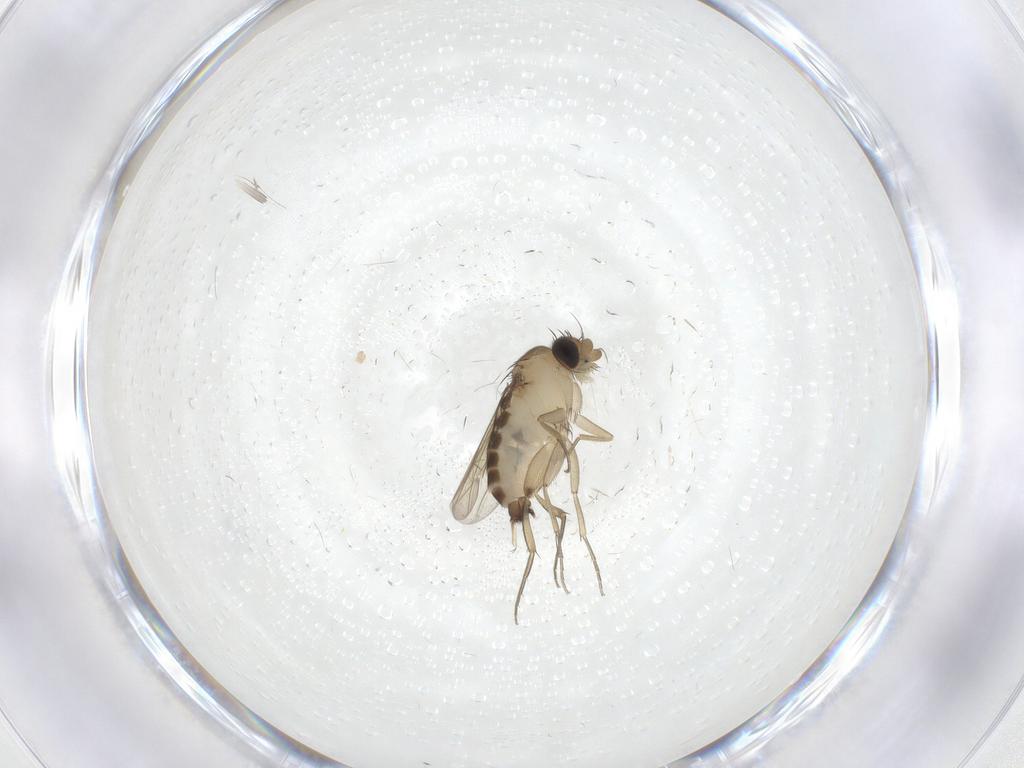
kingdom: Animalia
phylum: Arthropoda
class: Insecta
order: Diptera
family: Phoridae
